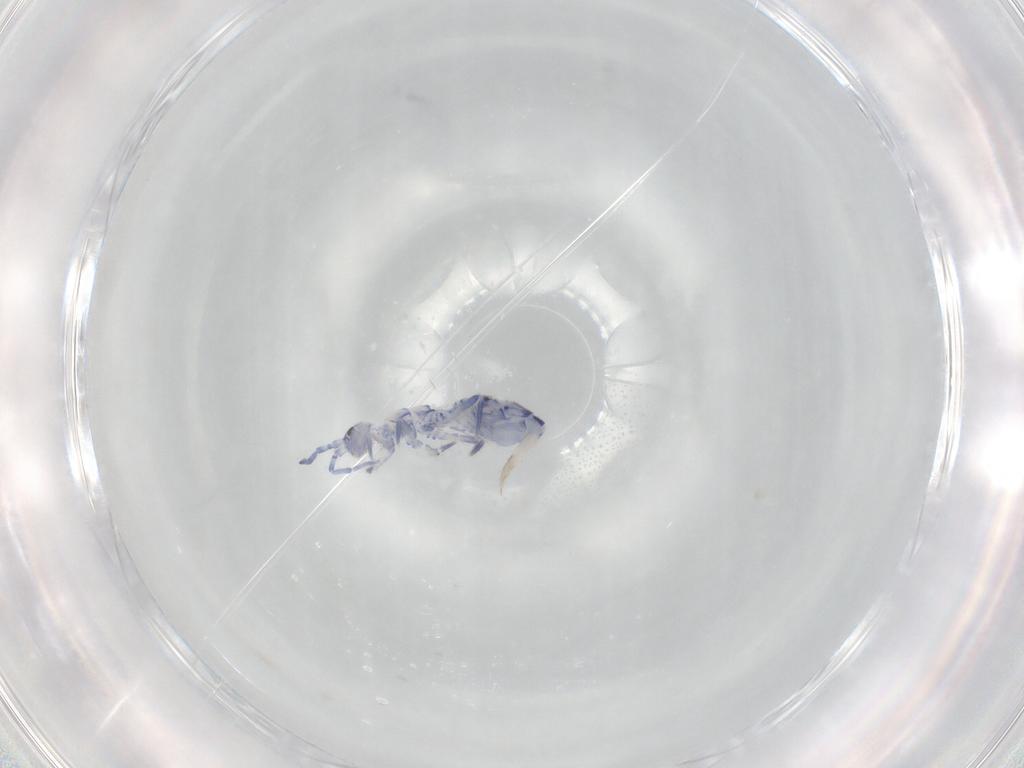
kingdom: Animalia
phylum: Arthropoda
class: Collembola
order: Entomobryomorpha
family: Orchesellidae
